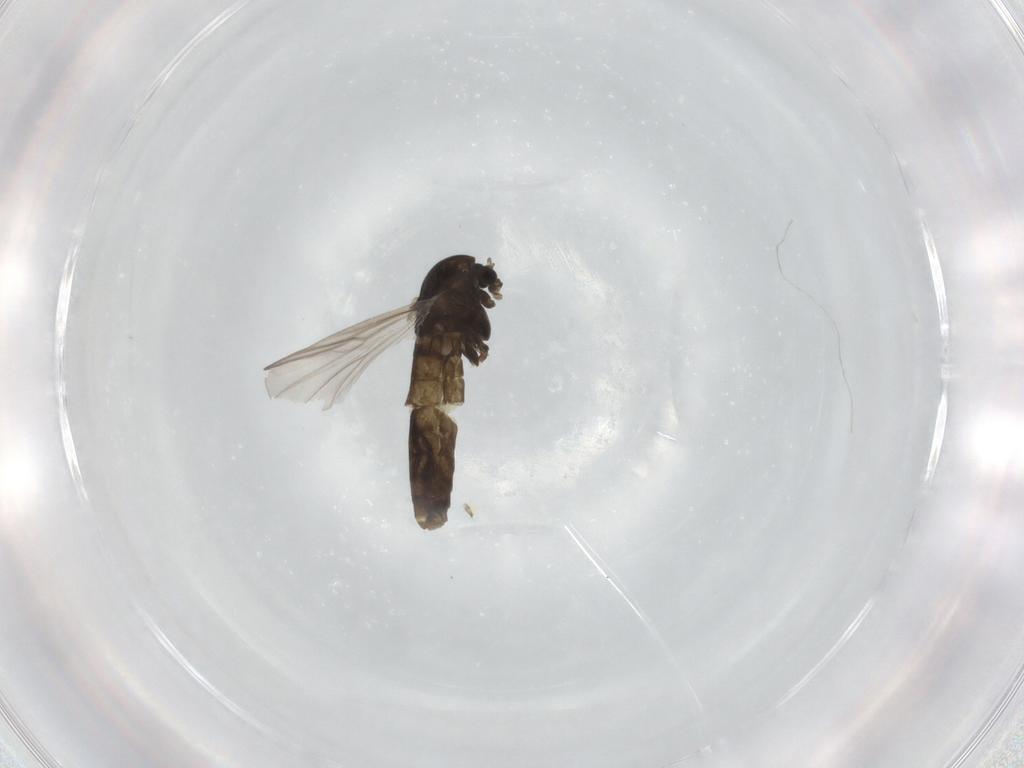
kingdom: Animalia
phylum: Arthropoda
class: Insecta
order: Diptera
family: Chironomidae
